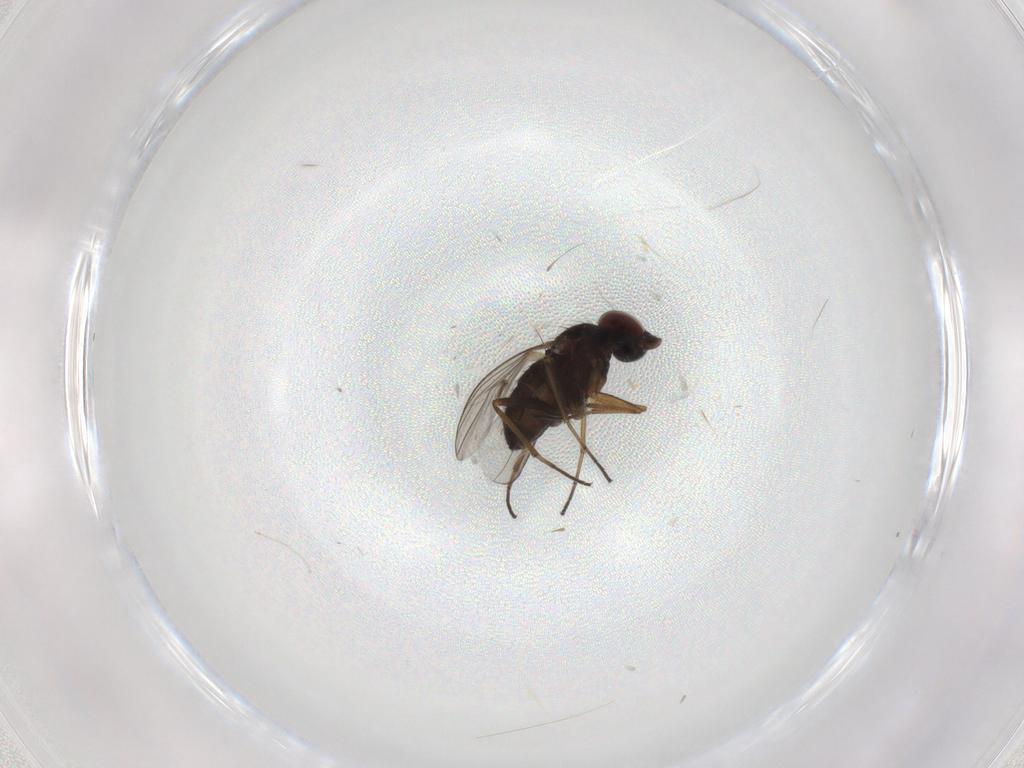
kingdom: Animalia
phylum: Arthropoda
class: Insecta
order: Diptera
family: Dolichopodidae
